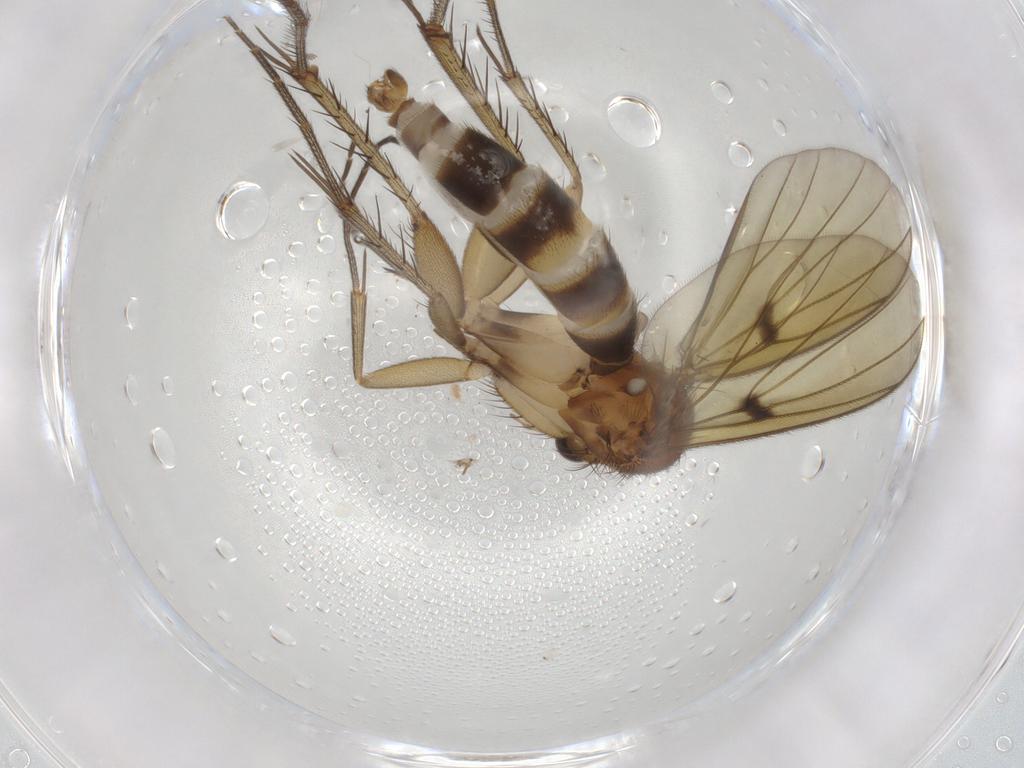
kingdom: Animalia
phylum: Arthropoda
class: Insecta
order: Diptera
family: Mycetophilidae
